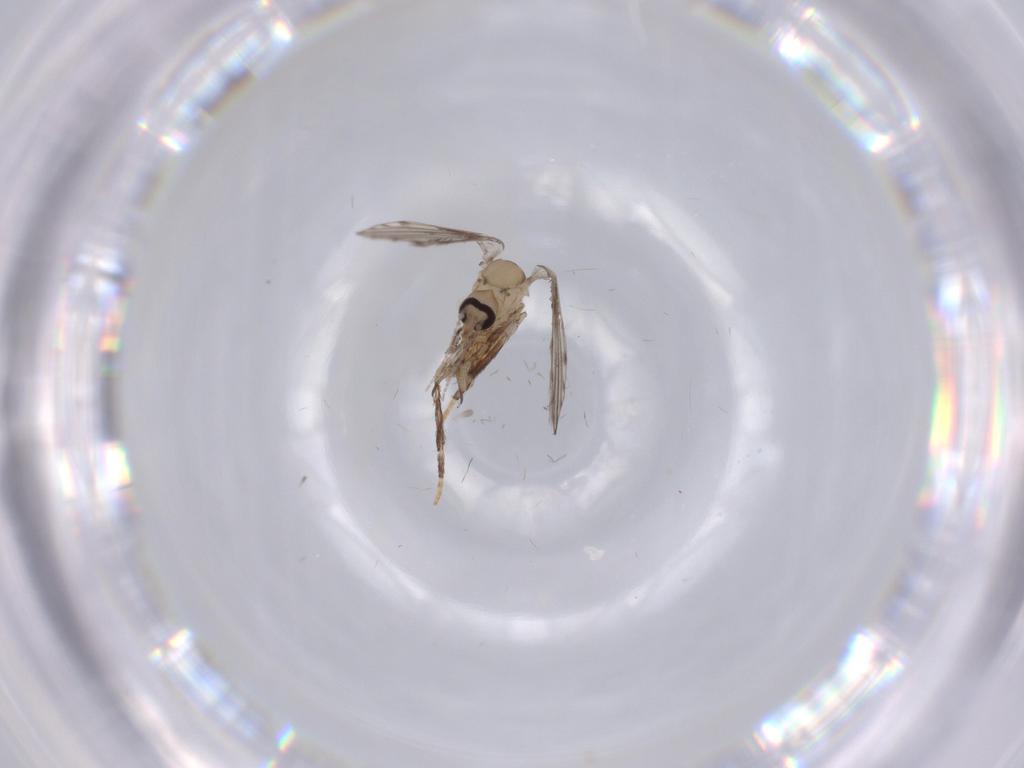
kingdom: Animalia
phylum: Arthropoda
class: Insecta
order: Diptera
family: Psychodidae
